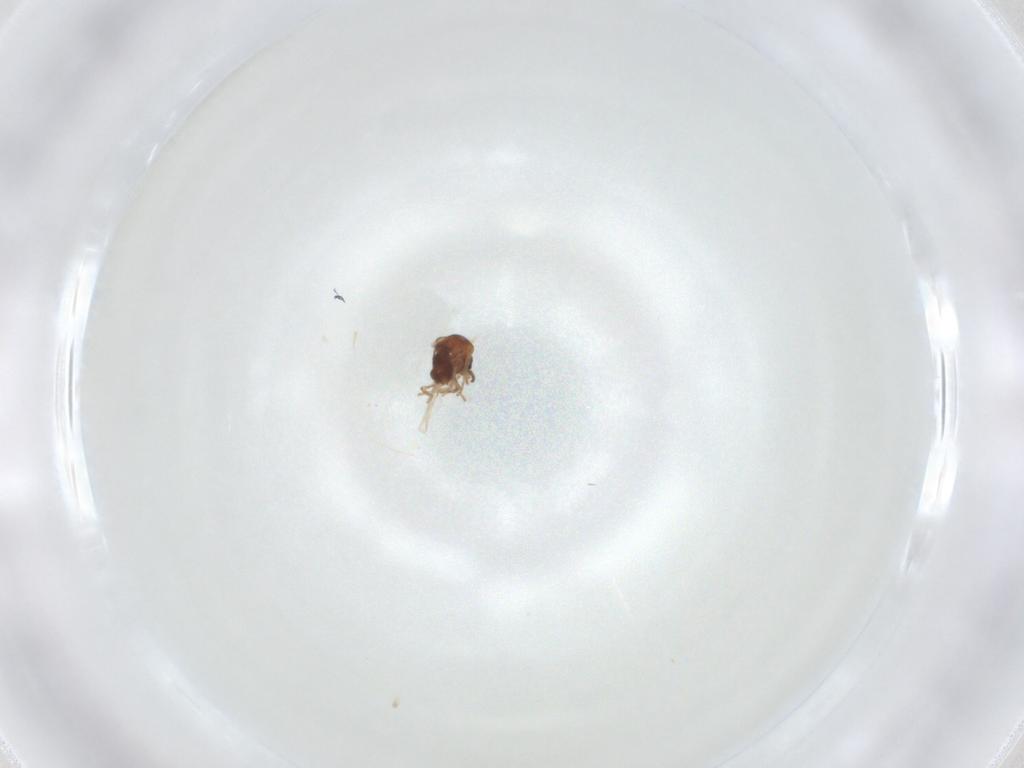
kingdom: Animalia
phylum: Arthropoda
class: Insecta
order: Diptera
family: Ceratopogonidae
